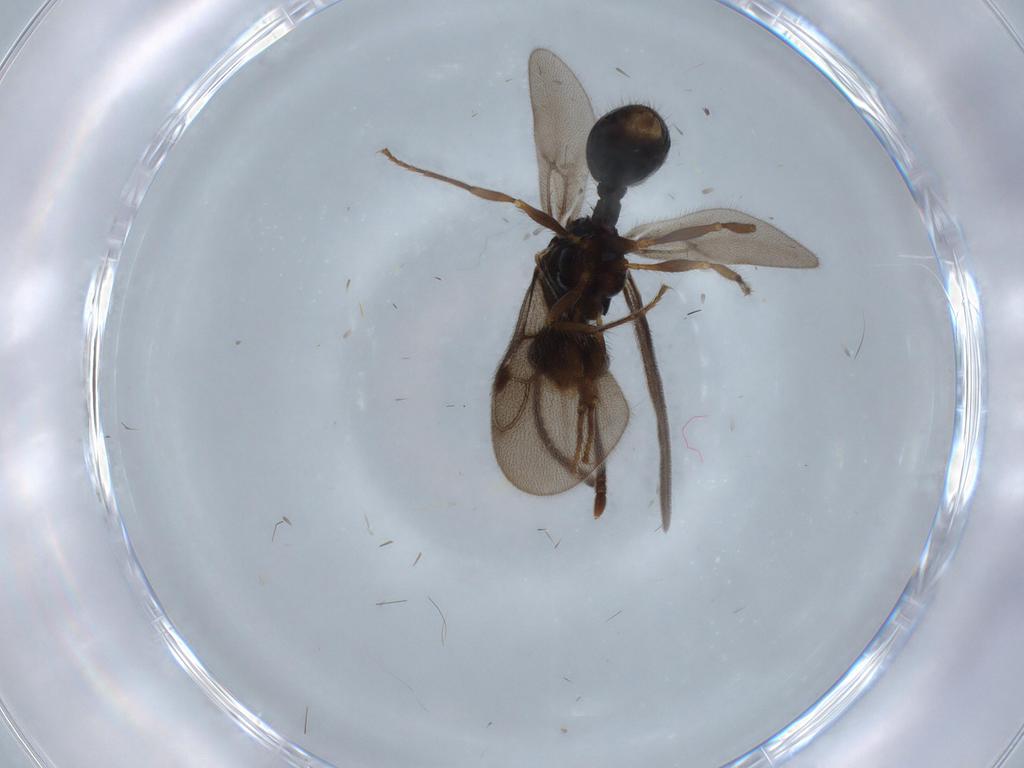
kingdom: Animalia
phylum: Arthropoda
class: Insecta
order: Hymenoptera
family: Formicidae
